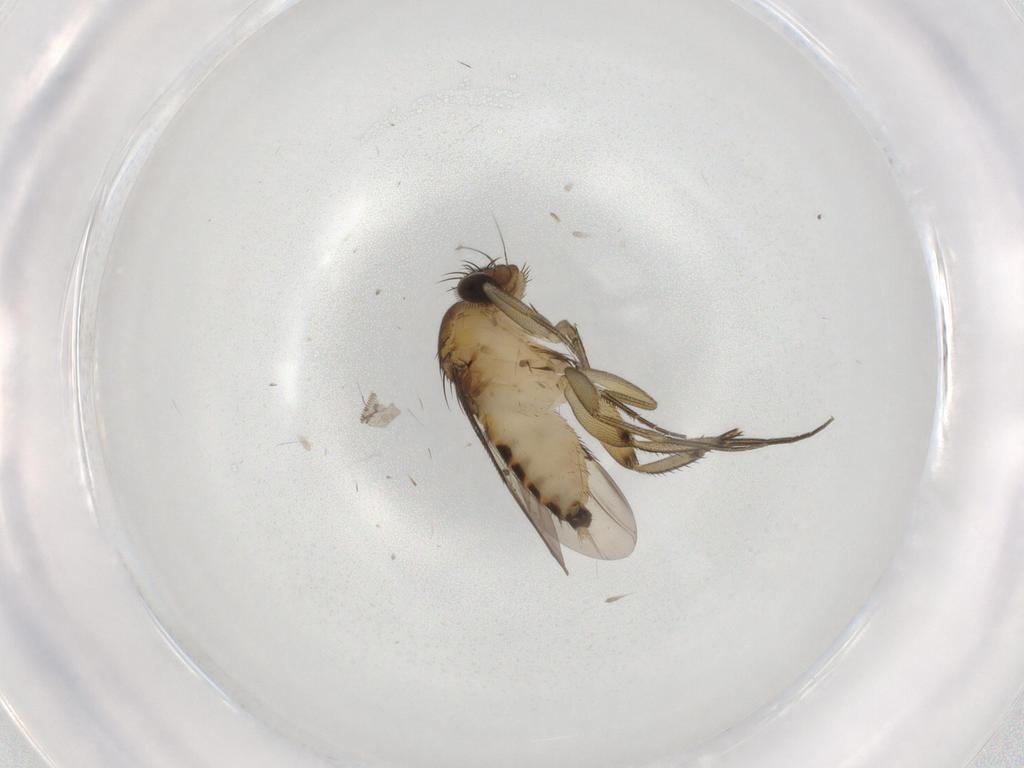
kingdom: Animalia
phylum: Arthropoda
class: Insecta
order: Diptera
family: Phoridae
